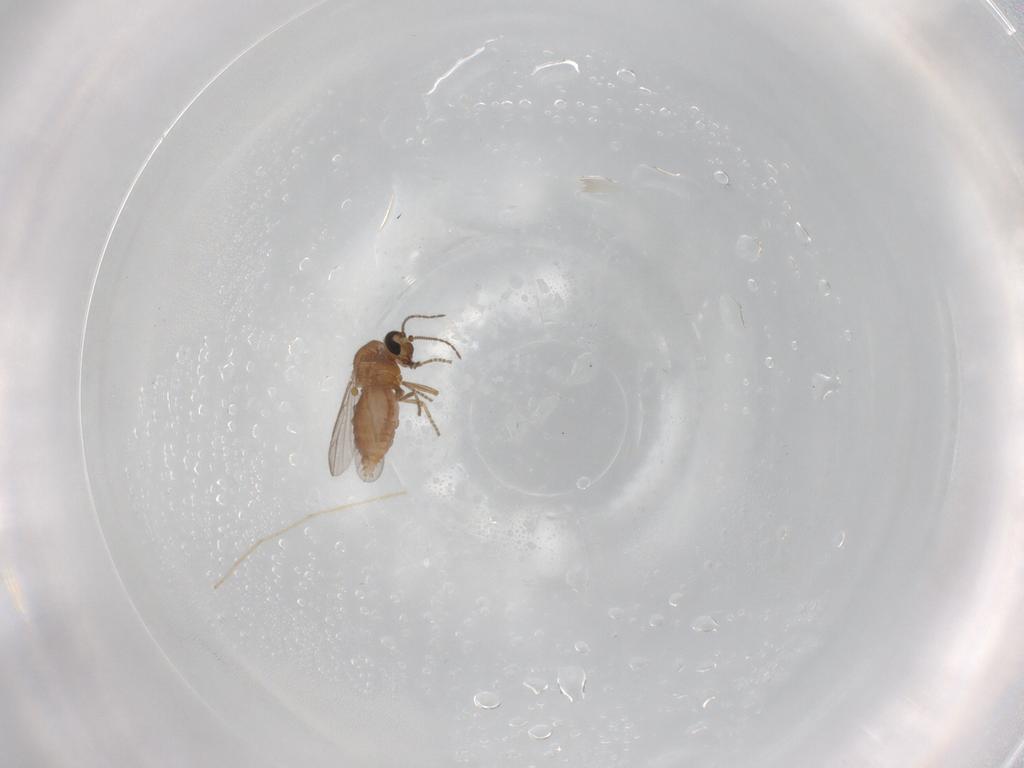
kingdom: Animalia
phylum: Arthropoda
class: Insecta
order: Diptera
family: Ceratopogonidae
